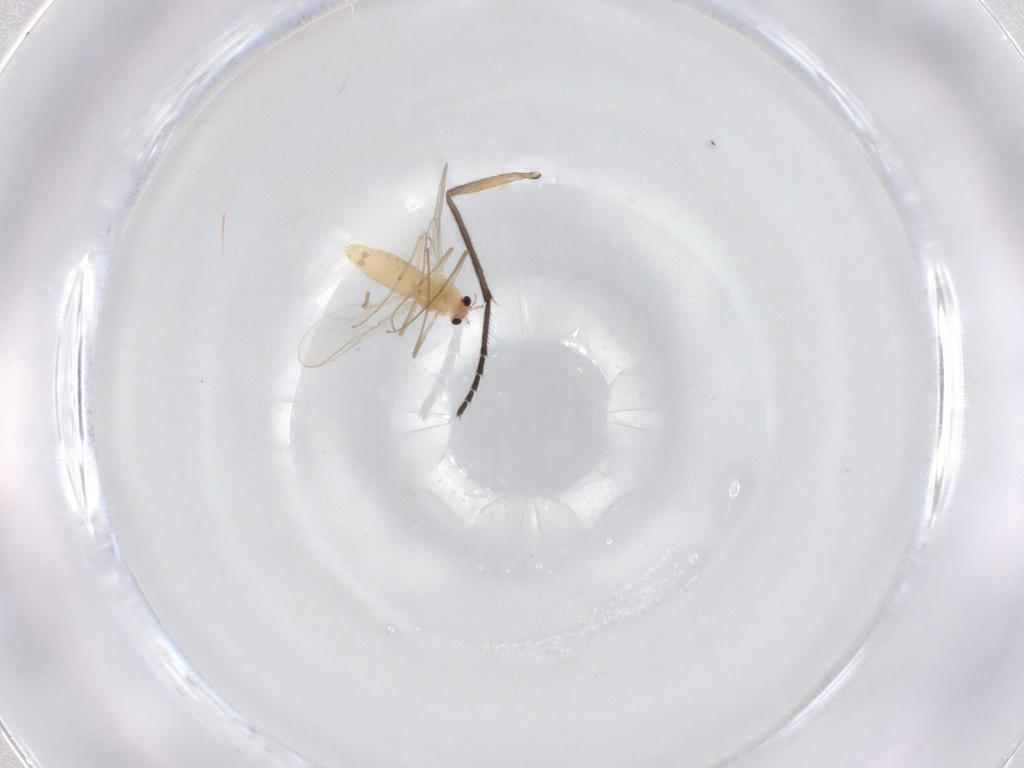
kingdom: Animalia
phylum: Arthropoda
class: Insecta
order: Diptera
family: Chironomidae
